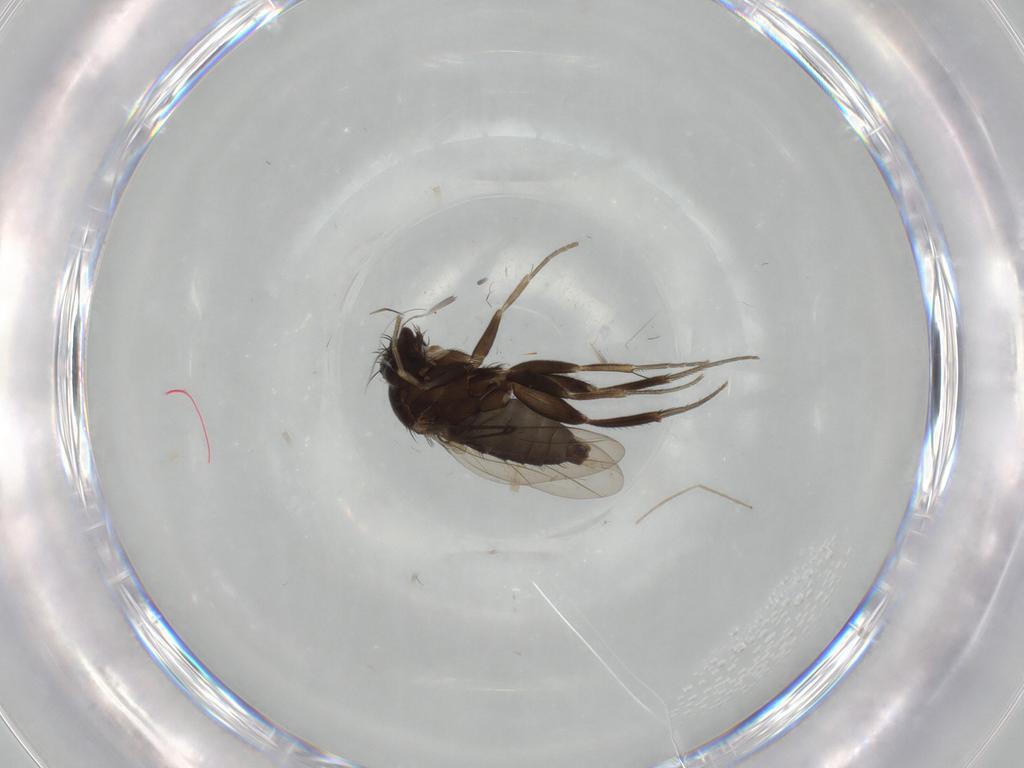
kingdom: Animalia
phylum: Arthropoda
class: Insecta
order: Diptera
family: Phoridae
